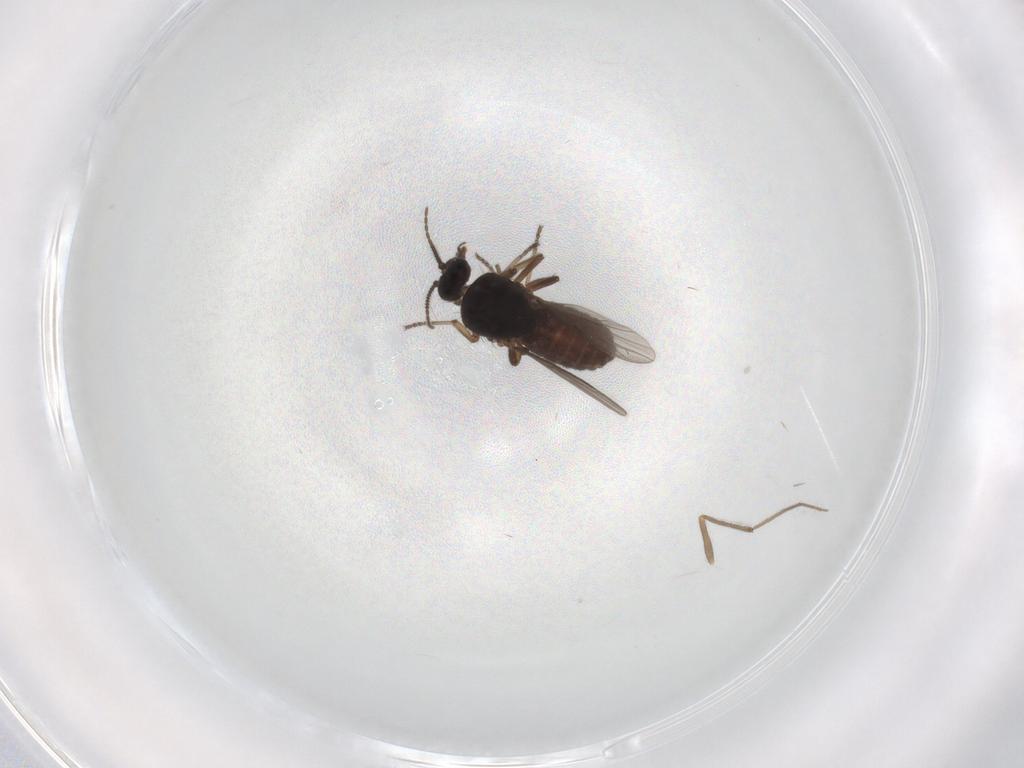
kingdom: Animalia
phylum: Arthropoda
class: Insecta
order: Diptera
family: Ceratopogonidae
